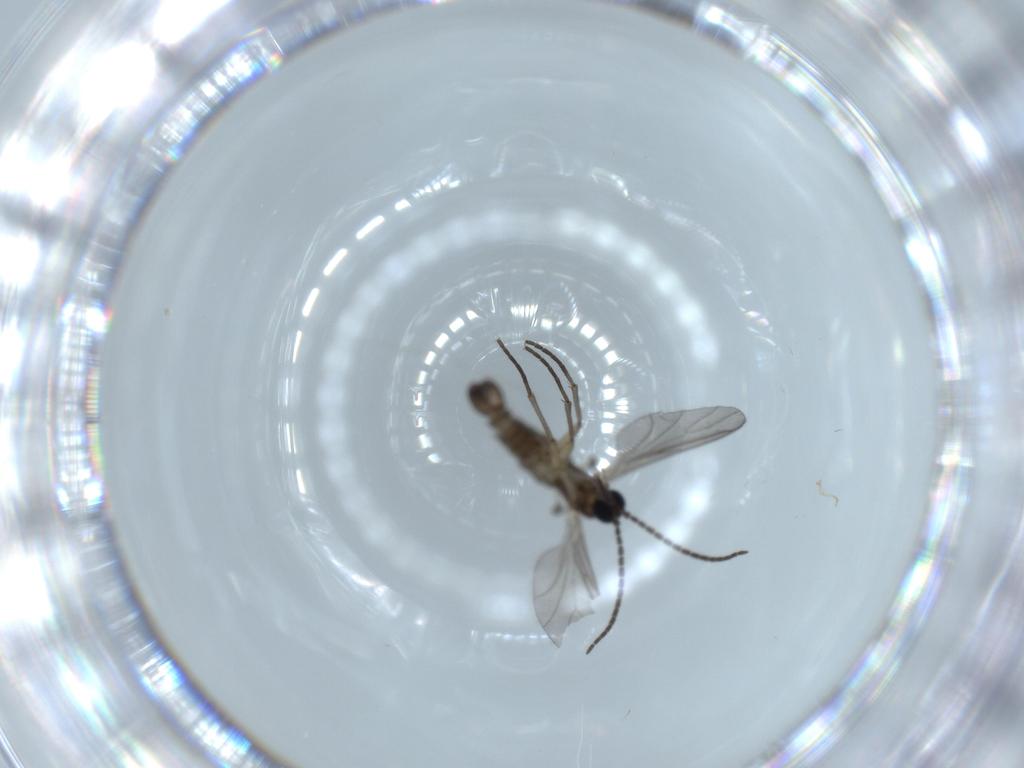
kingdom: Animalia
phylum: Arthropoda
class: Insecta
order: Diptera
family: Sciaridae
